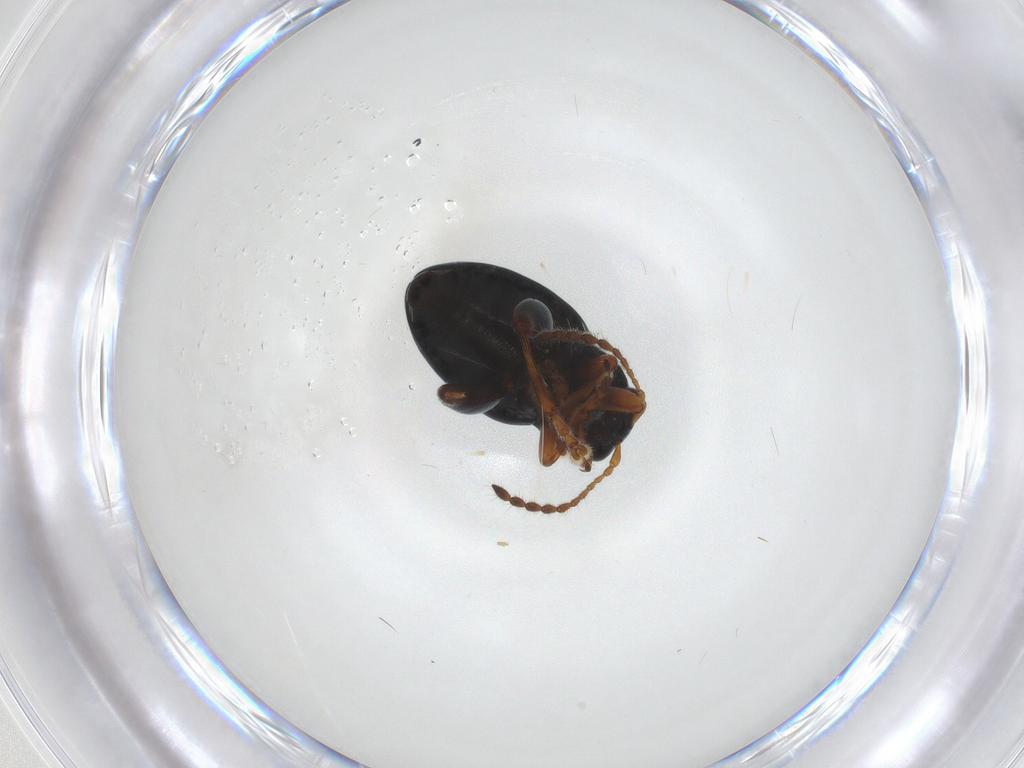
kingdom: Animalia
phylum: Arthropoda
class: Insecta
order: Coleoptera
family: Chrysomelidae
